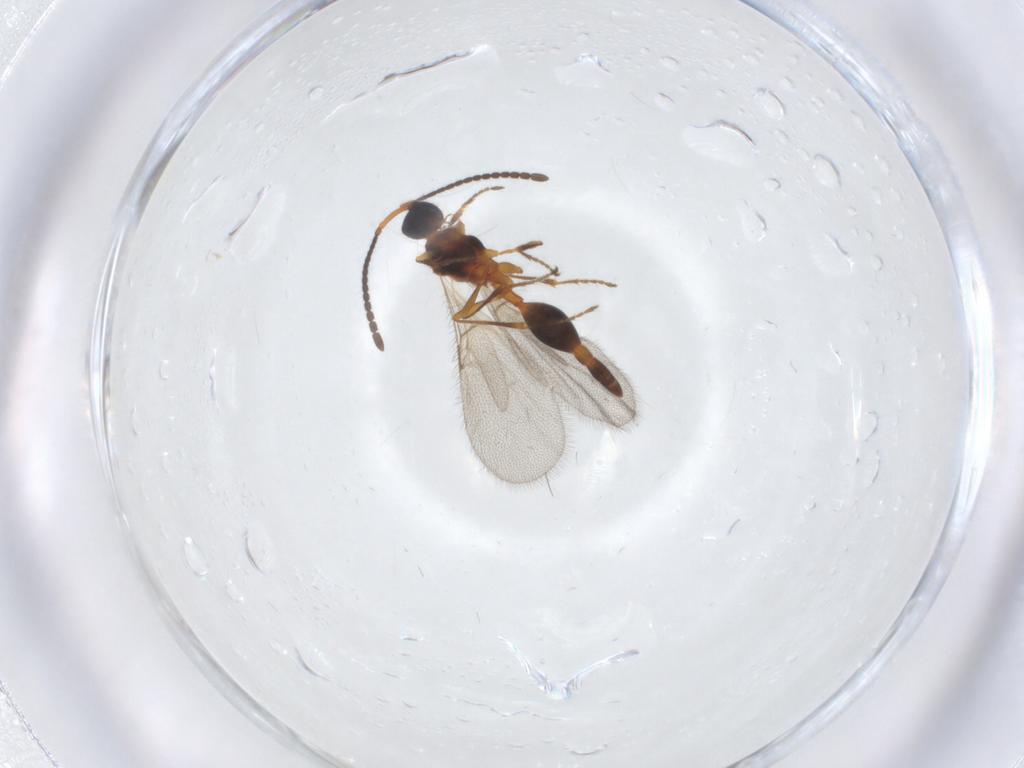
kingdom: Animalia
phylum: Arthropoda
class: Insecta
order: Hymenoptera
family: Diapriidae
